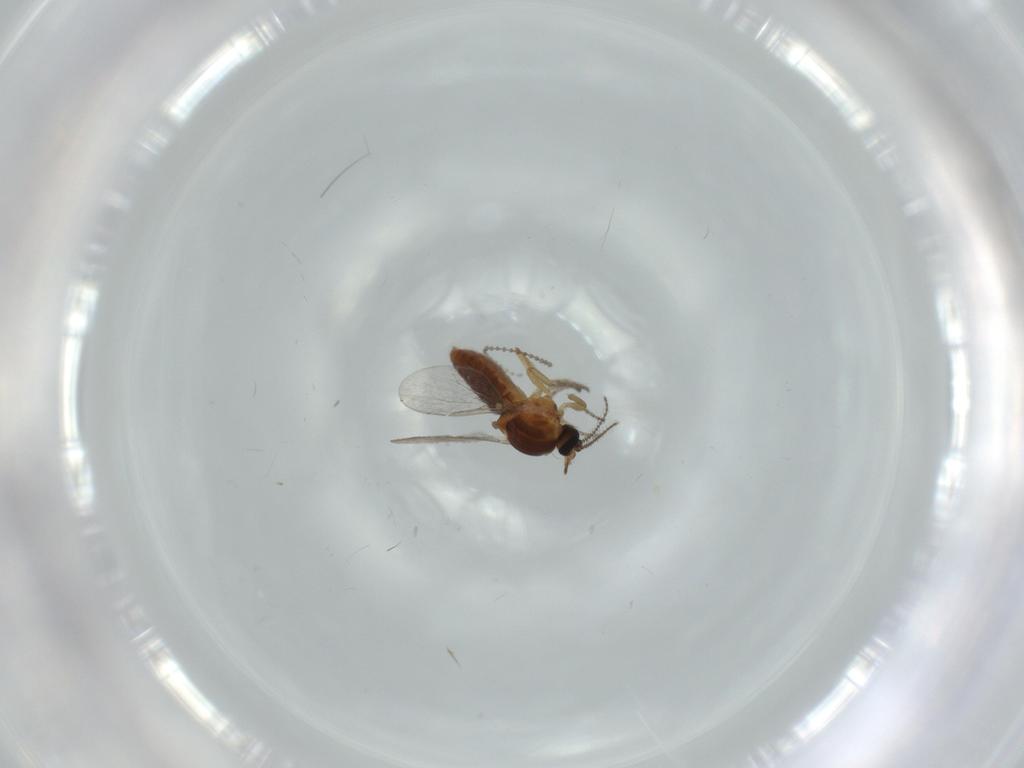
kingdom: Animalia
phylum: Arthropoda
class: Insecta
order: Diptera
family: Ceratopogonidae
